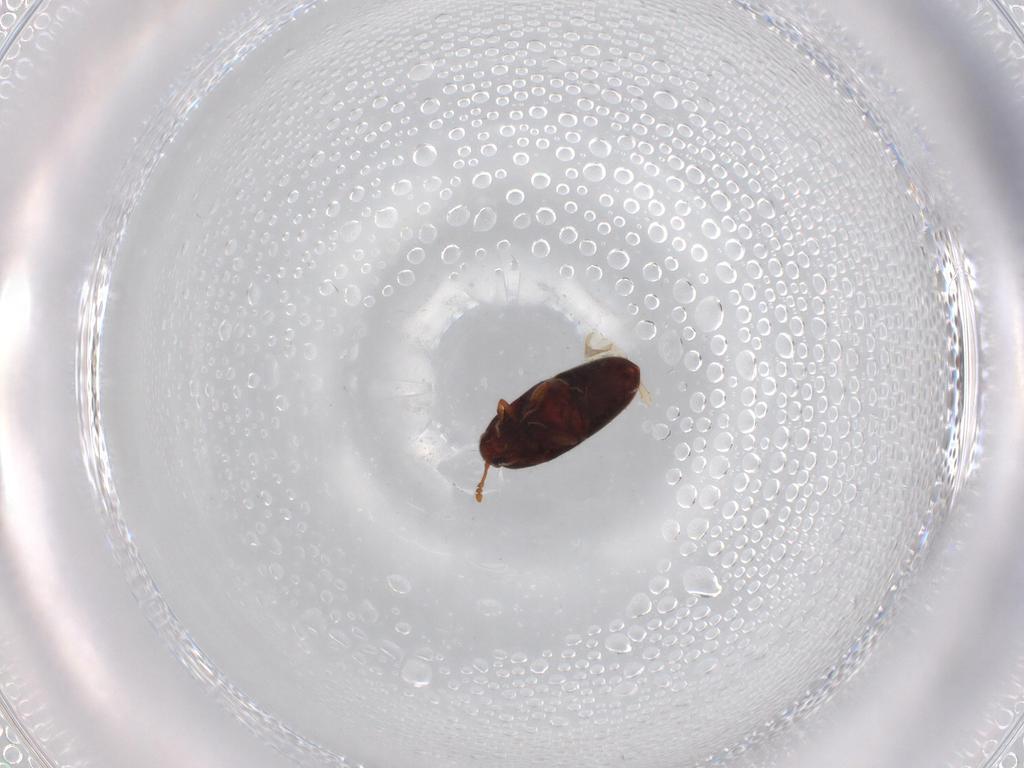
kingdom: Animalia
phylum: Arthropoda
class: Insecta
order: Coleoptera
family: Throscidae
